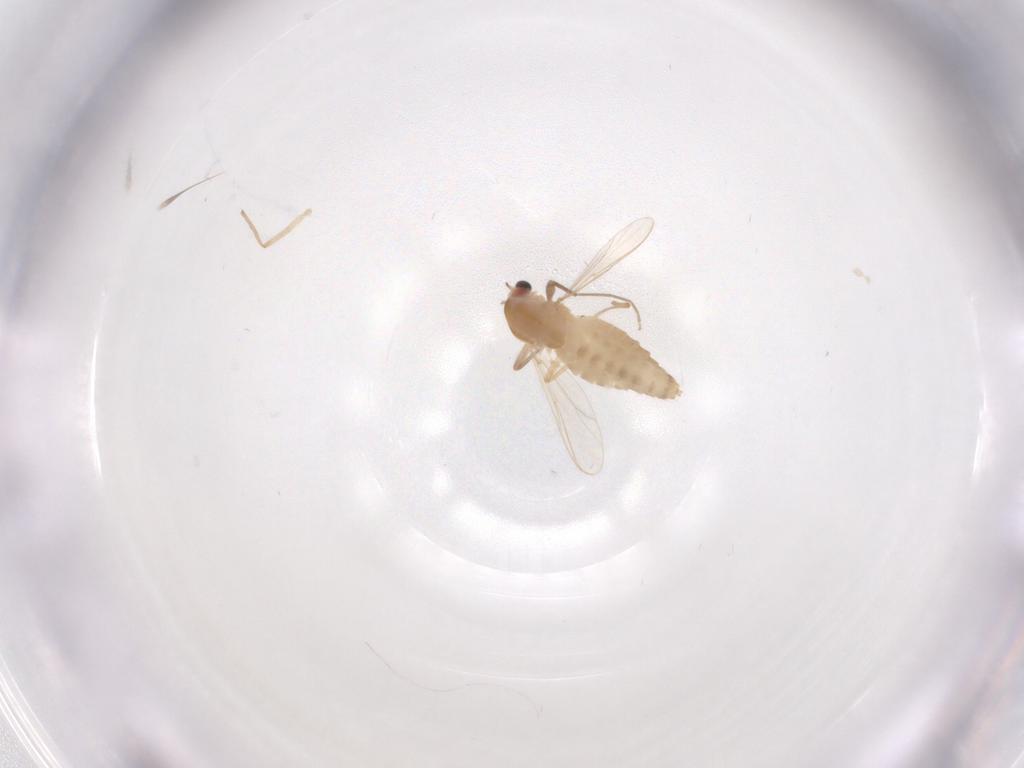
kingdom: Animalia
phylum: Arthropoda
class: Insecta
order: Diptera
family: Chironomidae
